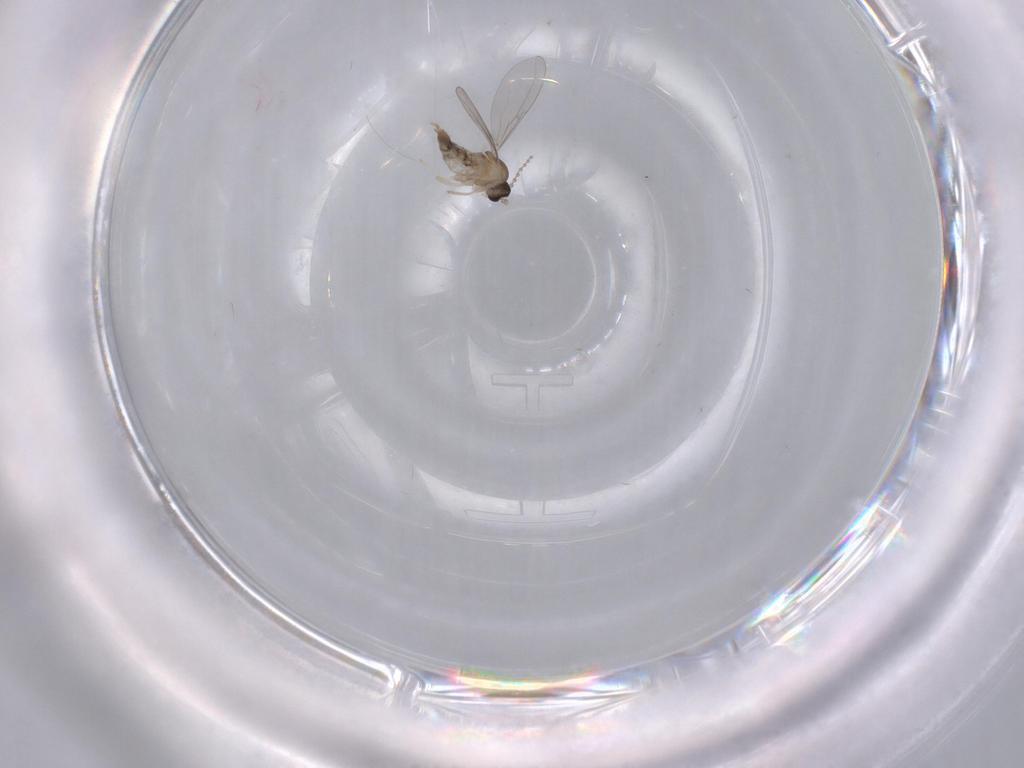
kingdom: Animalia
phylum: Arthropoda
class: Insecta
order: Diptera
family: Cecidomyiidae
